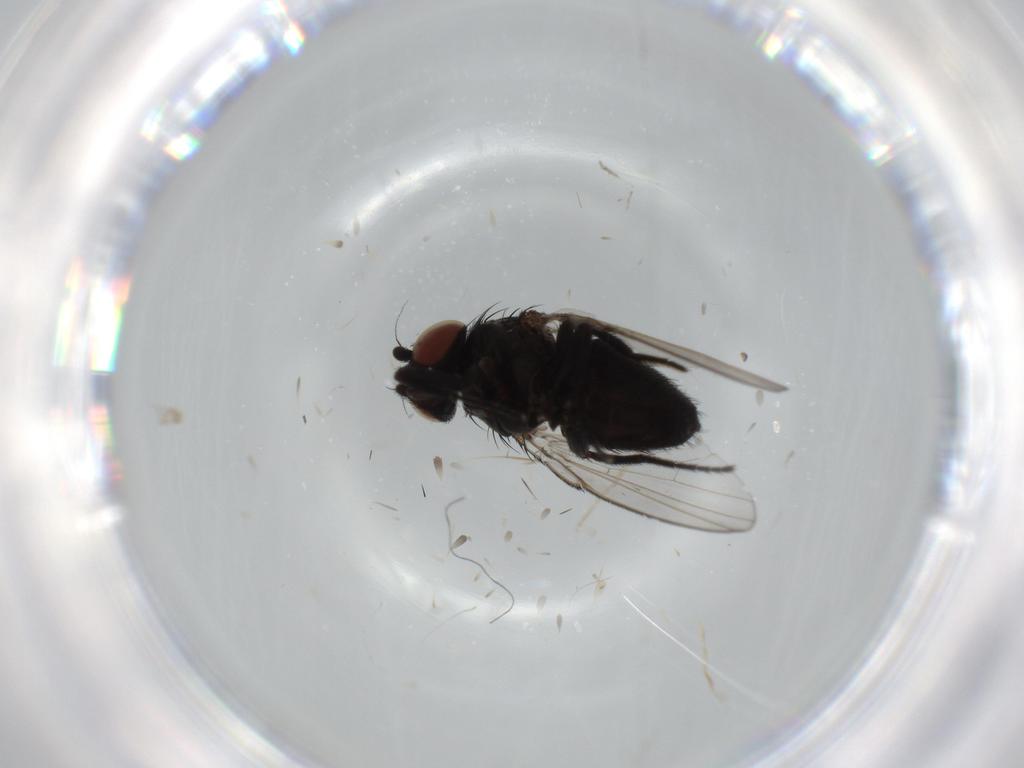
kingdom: Animalia
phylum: Arthropoda
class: Insecta
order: Diptera
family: Milichiidae
